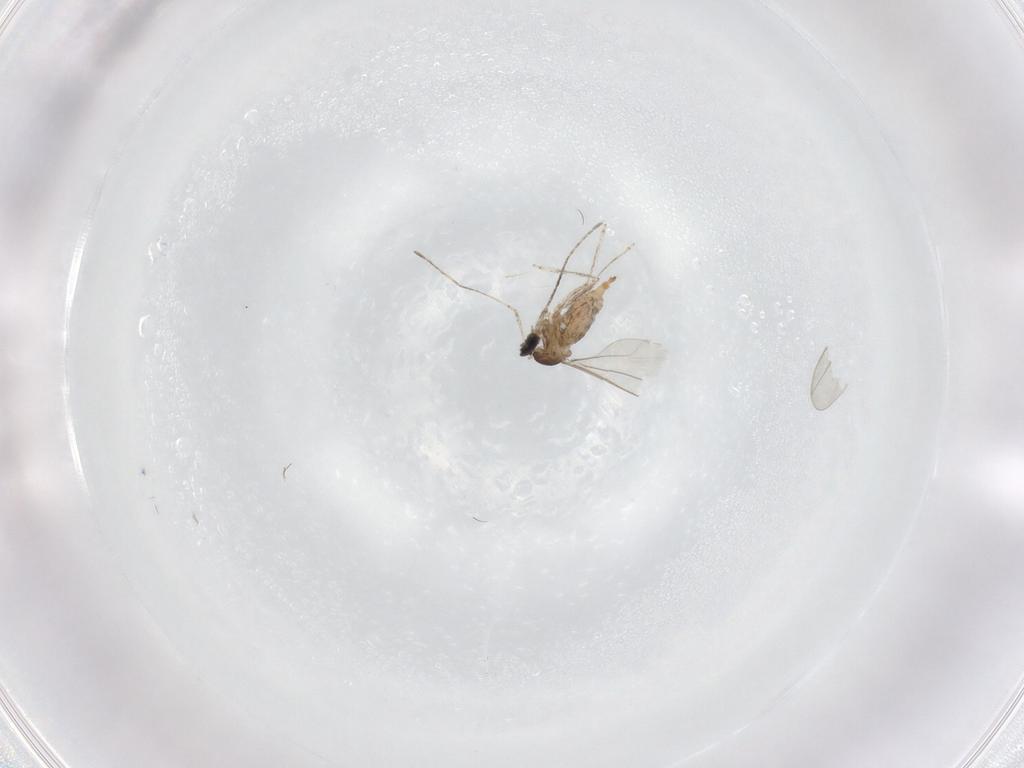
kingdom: Animalia
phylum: Arthropoda
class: Insecta
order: Diptera
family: Cecidomyiidae
